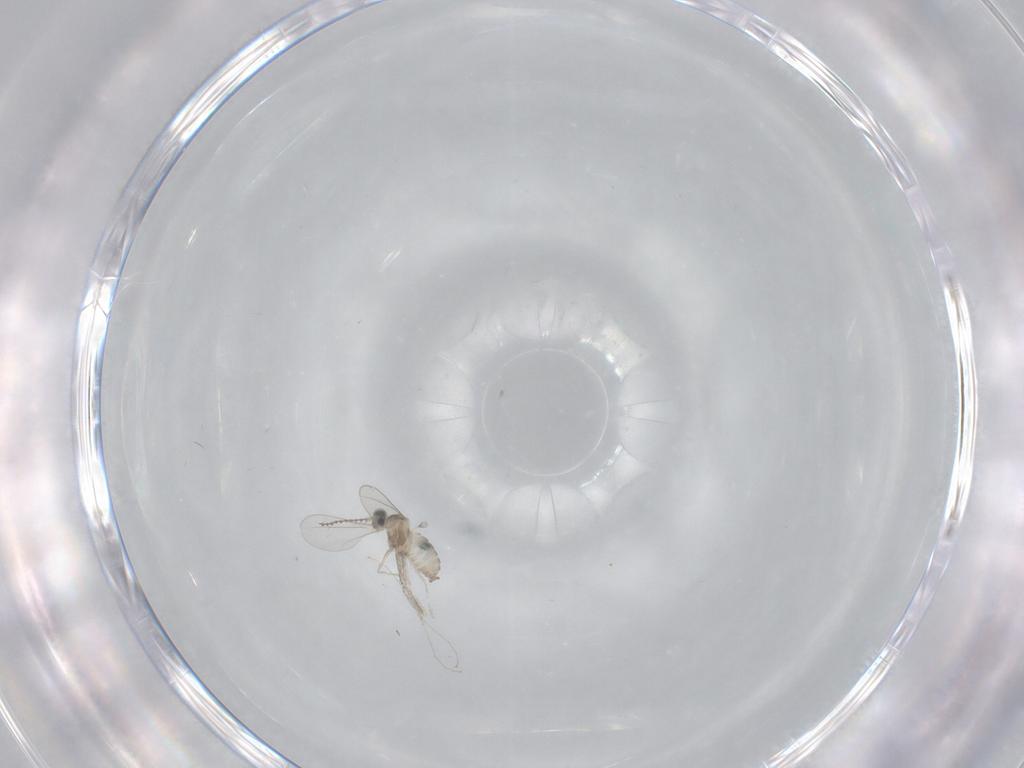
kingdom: Animalia
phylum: Arthropoda
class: Insecta
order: Diptera
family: Cecidomyiidae
